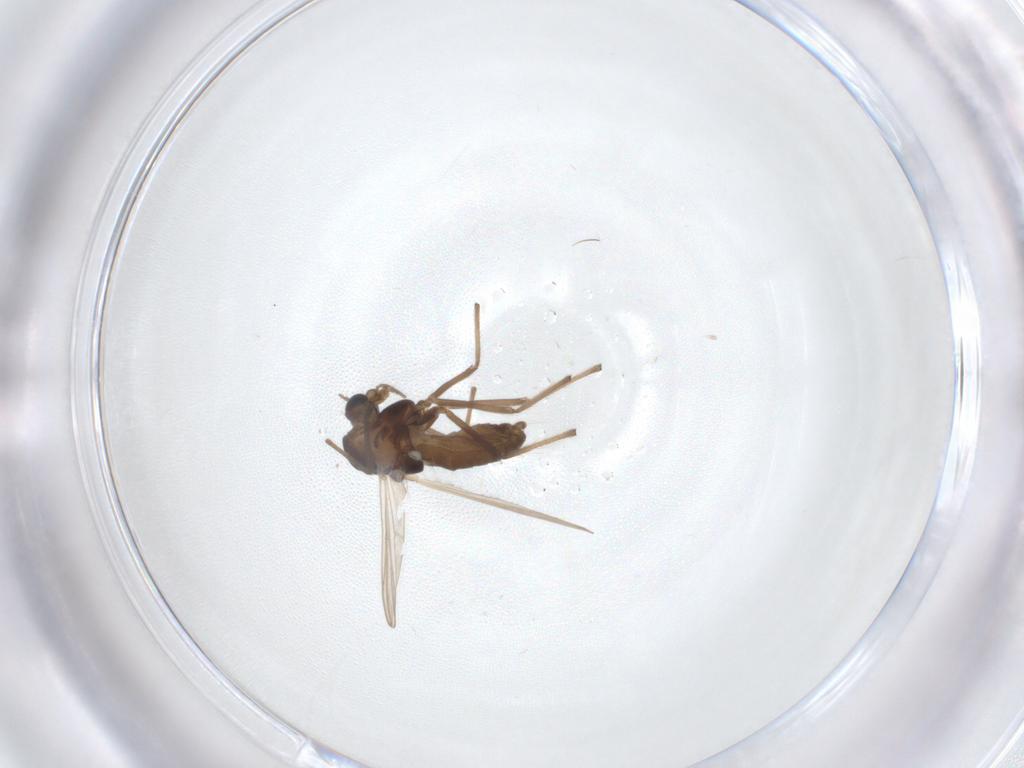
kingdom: Animalia
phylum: Arthropoda
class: Insecta
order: Diptera
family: Chironomidae
